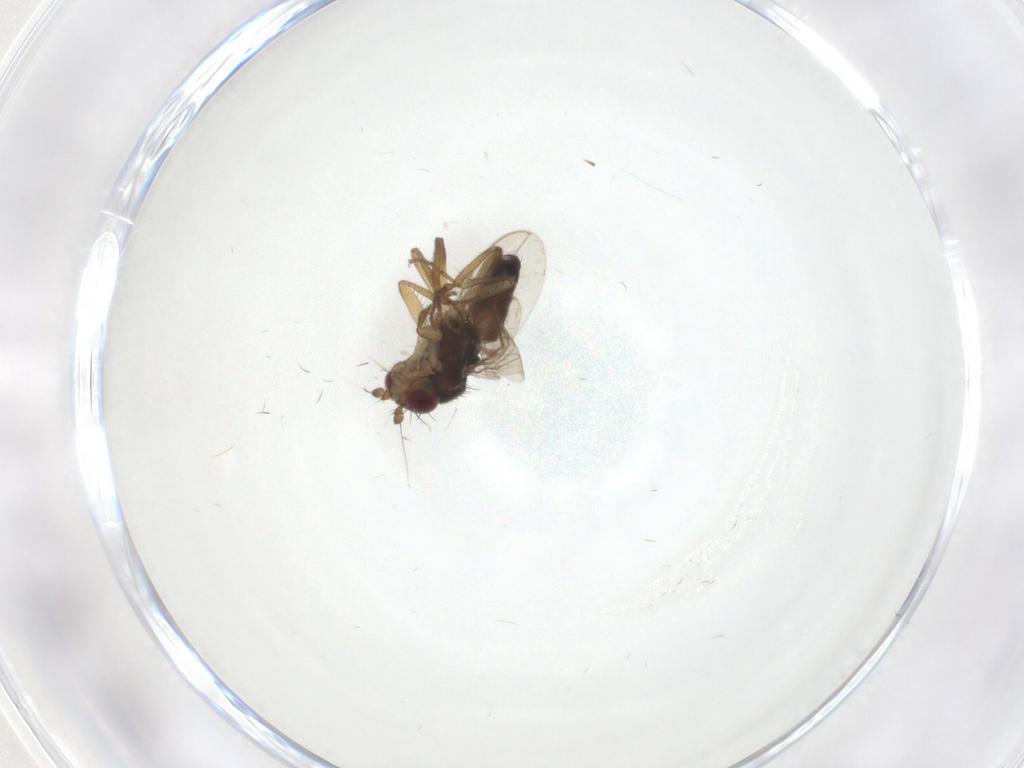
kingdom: Animalia
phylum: Arthropoda
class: Insecta
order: Diptera
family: Sphaeroceridae
